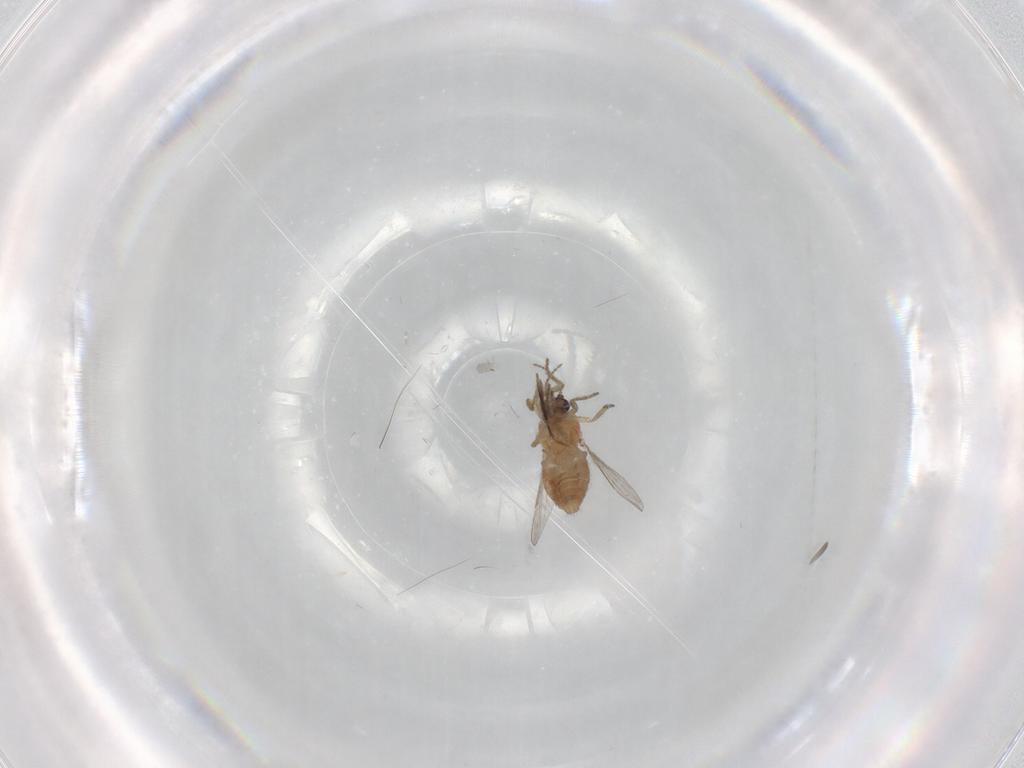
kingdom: Animalia
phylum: Arthropoda
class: Insecta
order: Diptera
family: Ceratopogonidae
